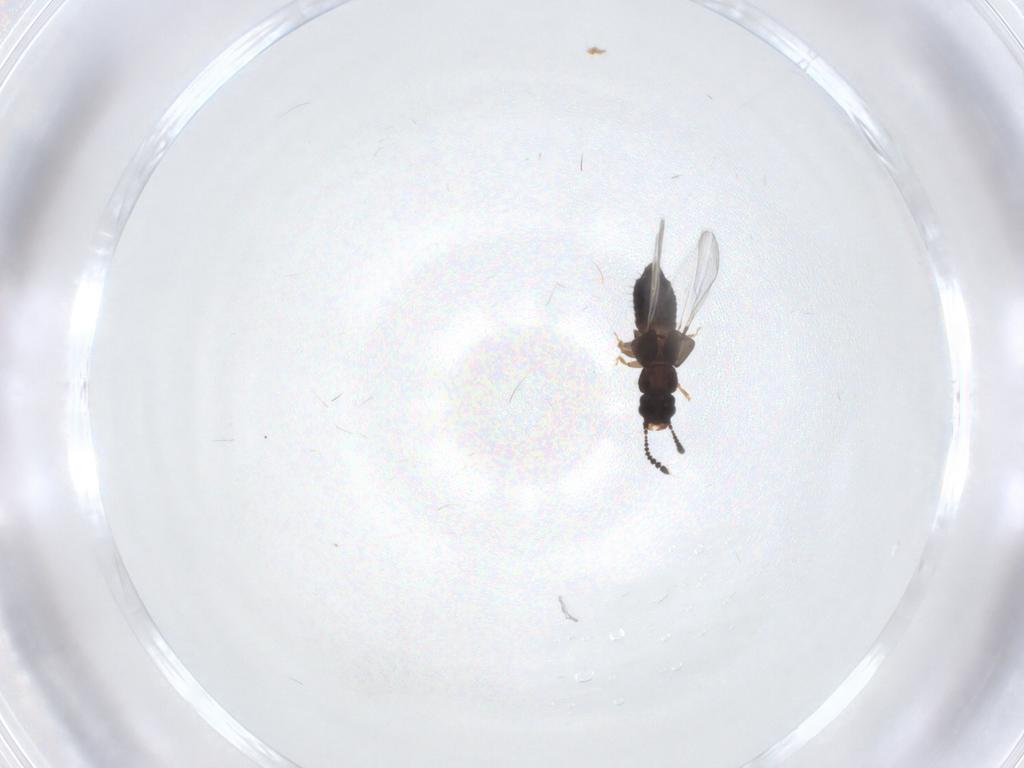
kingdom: Animalia
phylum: Arthropoda
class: Insecta
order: Coleoptera
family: Staphylinidae
